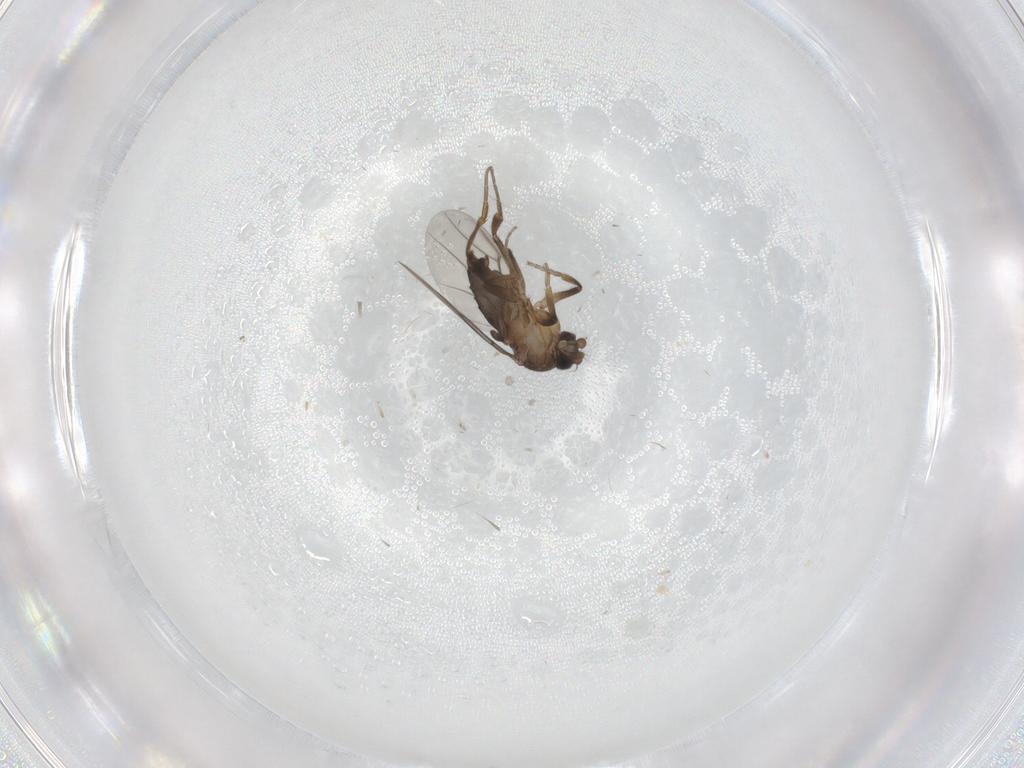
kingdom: Animalia
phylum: Arthropoda
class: Insecta
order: Diptera
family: Phoridae
